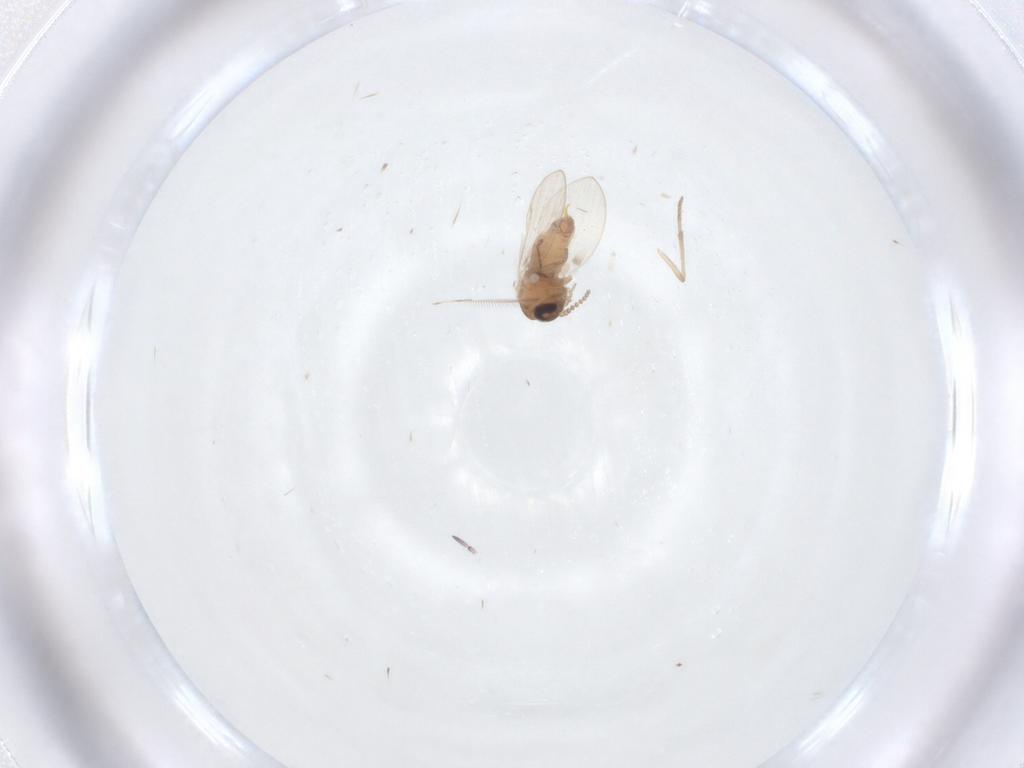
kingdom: Animalia
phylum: Arthropoda
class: Insecta
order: Diptera
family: Psychodidae
